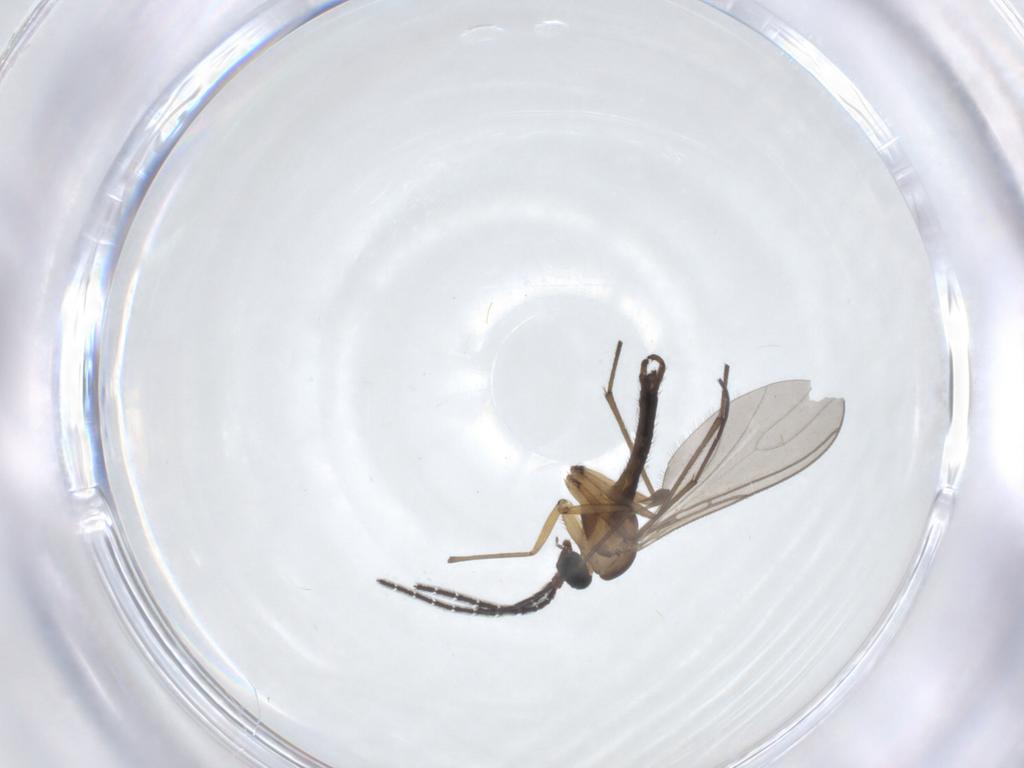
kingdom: Animalia
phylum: Arthropoda
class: Insecta
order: Diptera
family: Sciaridae
